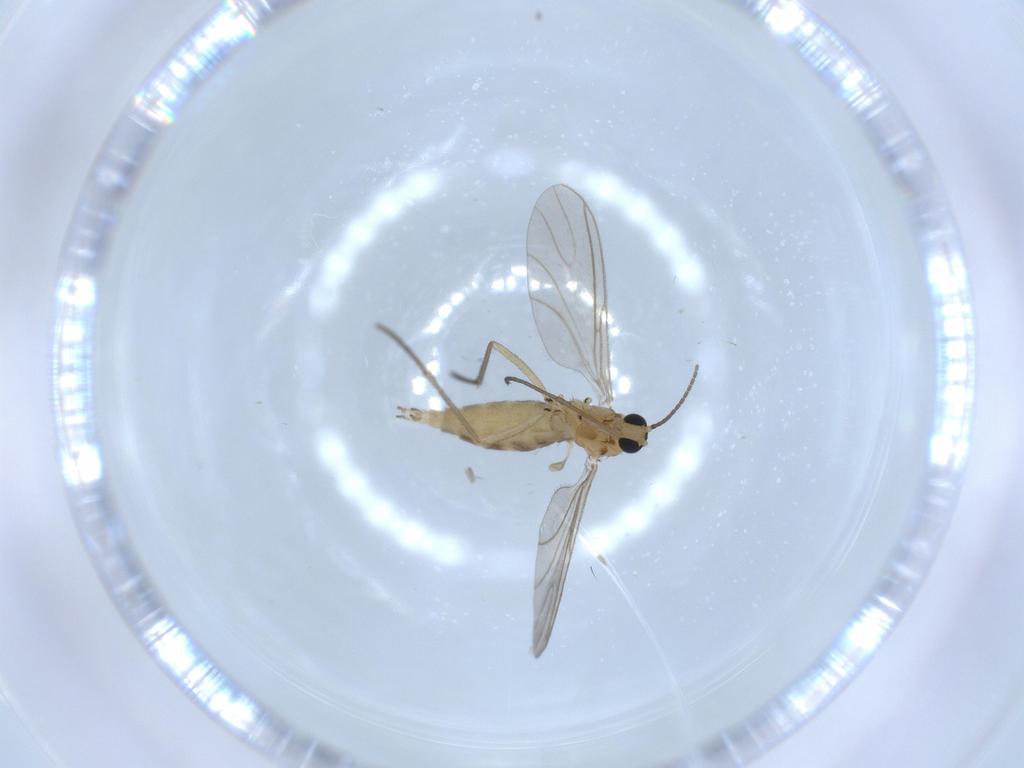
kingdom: Animalia
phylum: Arthropoda
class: Insecta
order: Diptera
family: Sciaridae
